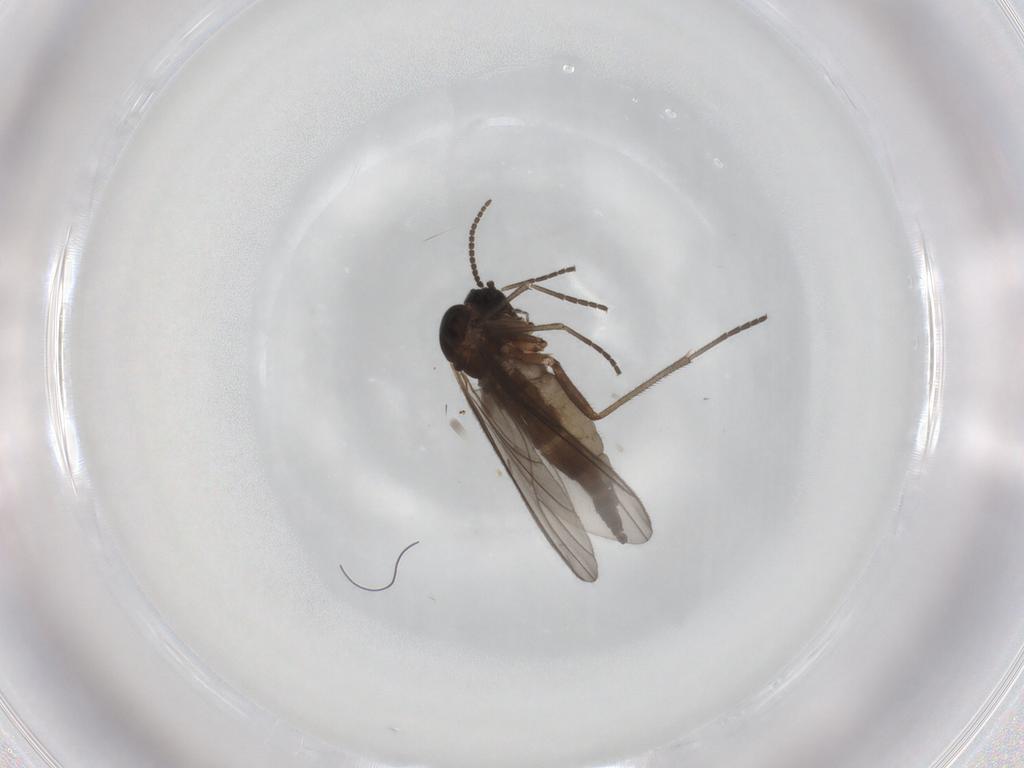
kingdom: Animalia
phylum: Arthropoda
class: Insecta
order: Diptera
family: Sciaridae
